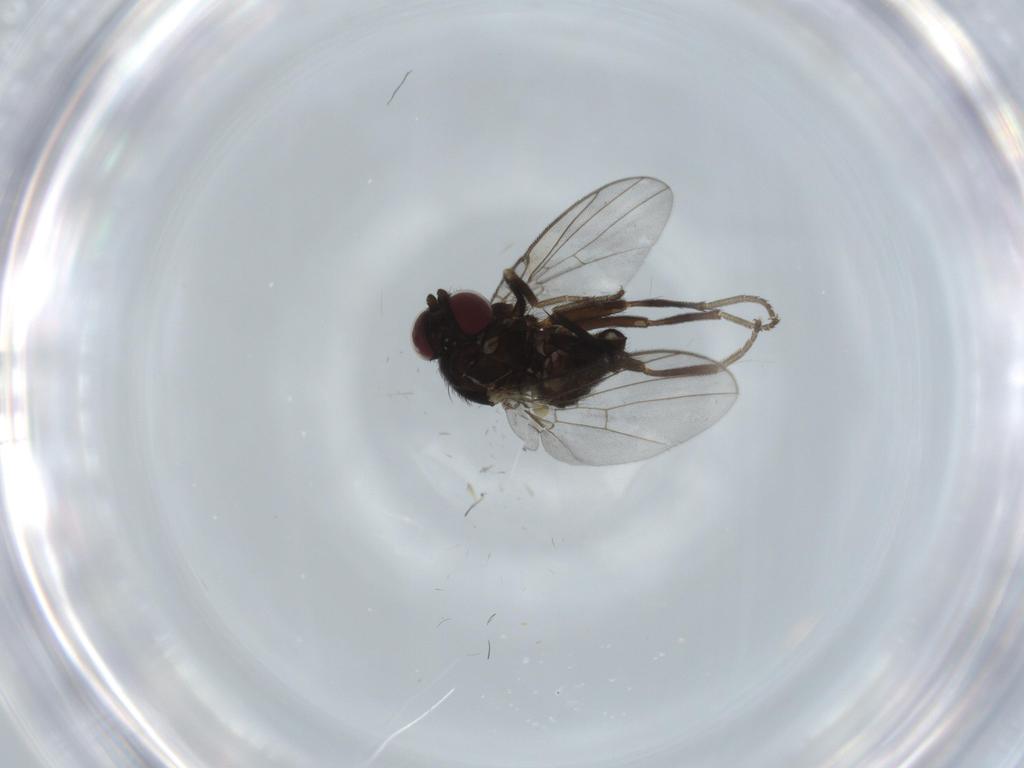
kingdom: Animalia
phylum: Arthropoda
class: Insecta
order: Diptera
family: Agromyzidae
